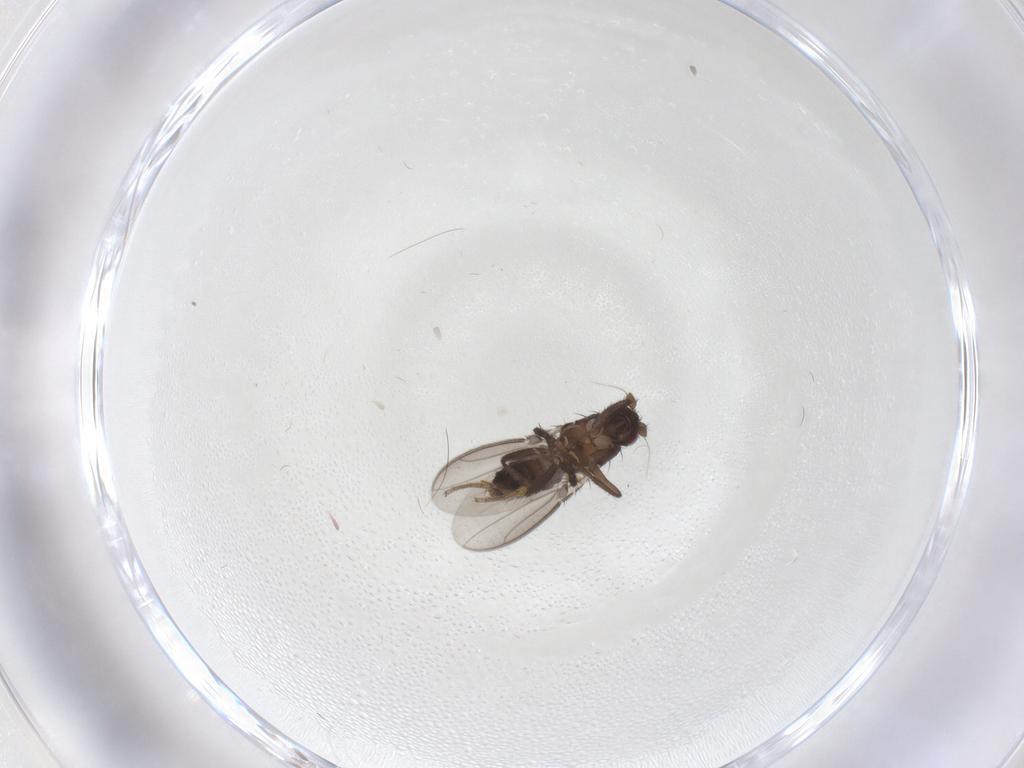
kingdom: Animalia
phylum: Arthropoda
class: Insecta
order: Diptera
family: Sphaeroceridae
